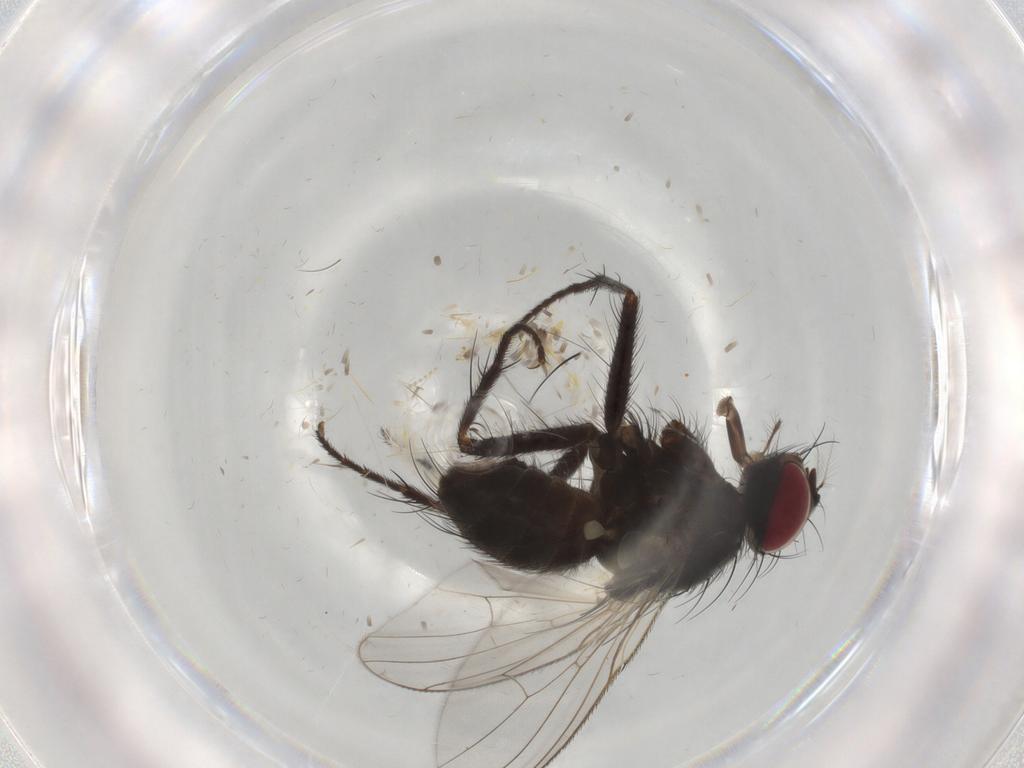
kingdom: Animalia
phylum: Arthropoda
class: Insecta
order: Diptera
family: Muscidae
